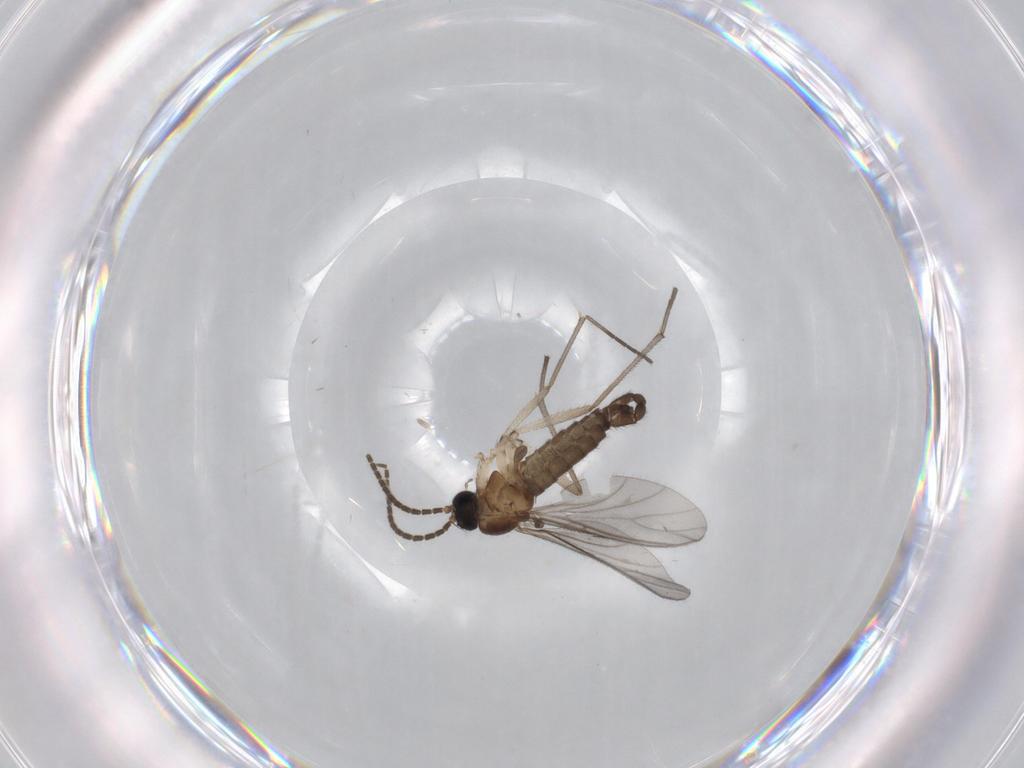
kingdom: Animalia
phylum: Arthropoda
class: Insecta
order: Diptera
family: Sciaridae
